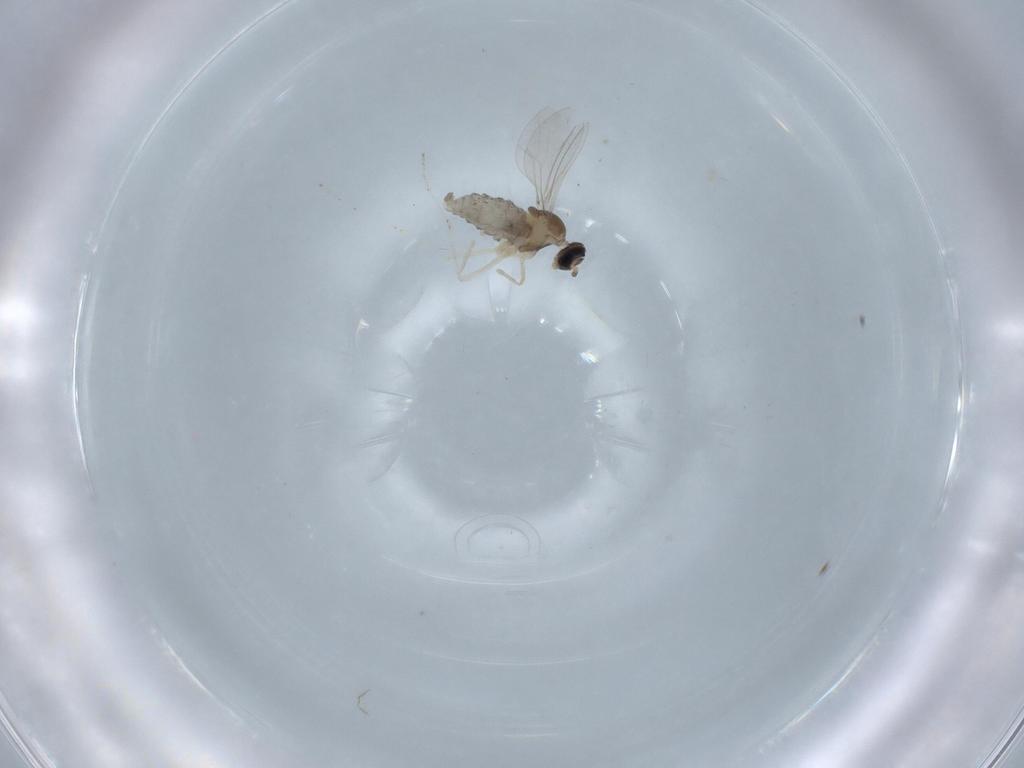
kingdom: Animalia
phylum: Arthropoda
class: Insecta
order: Diptera
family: Cecidomyiidae
